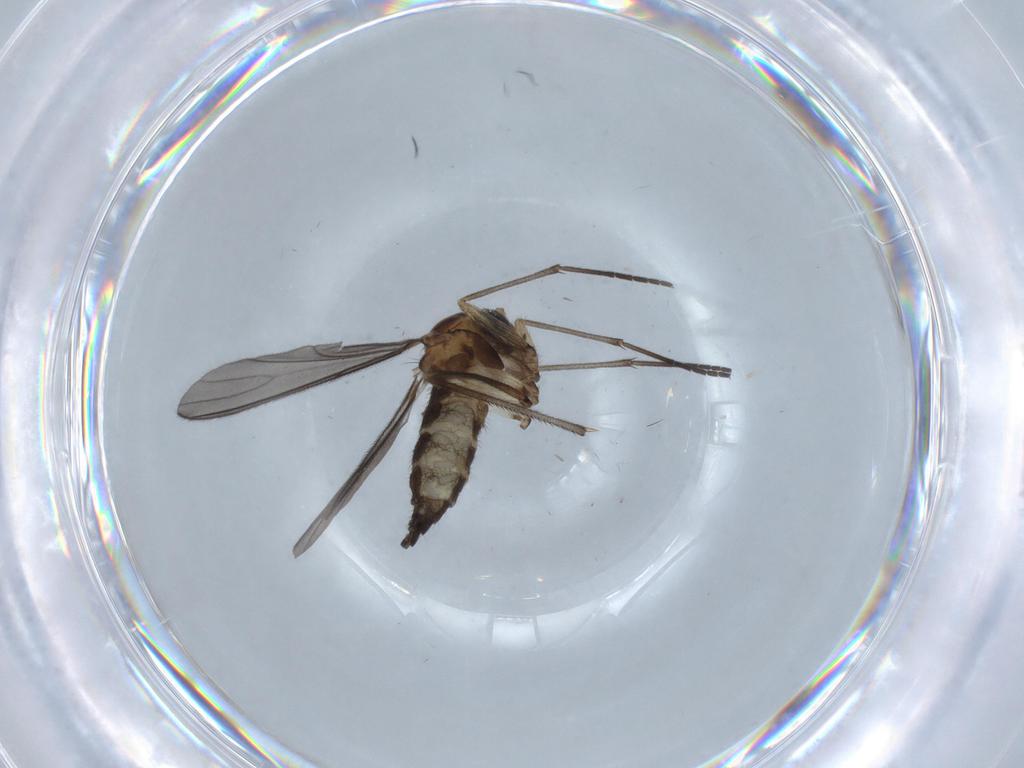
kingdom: Animalia
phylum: Arthropoda
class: Insecta
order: Diptera
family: Sciaridae
